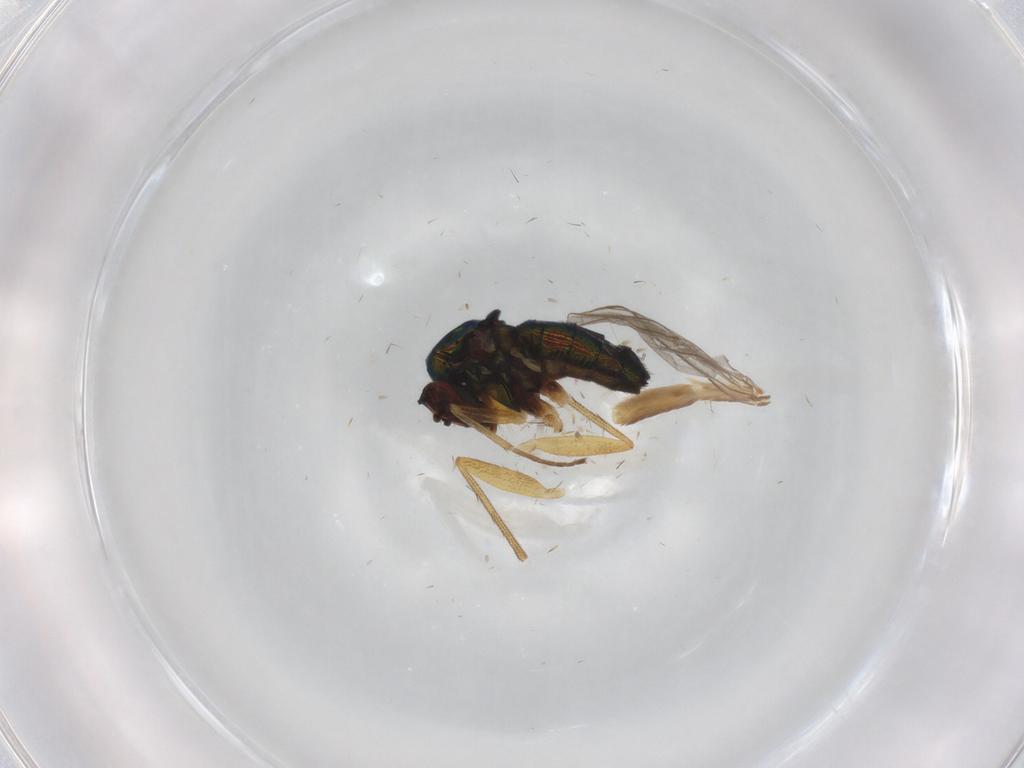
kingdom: Animalia
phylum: Arthropoda
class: Insecta
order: Diptera
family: Dolichopodidae
